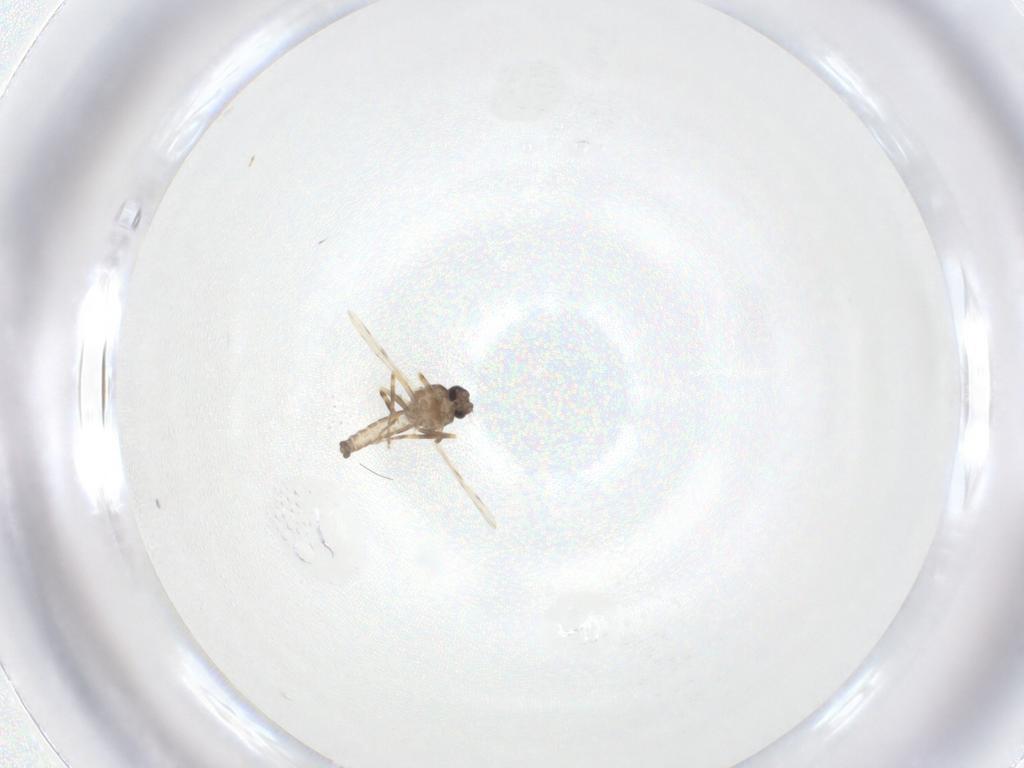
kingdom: Animalia
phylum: Arthropoda
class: Insecta
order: Diptera
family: Ceratopogonidae
